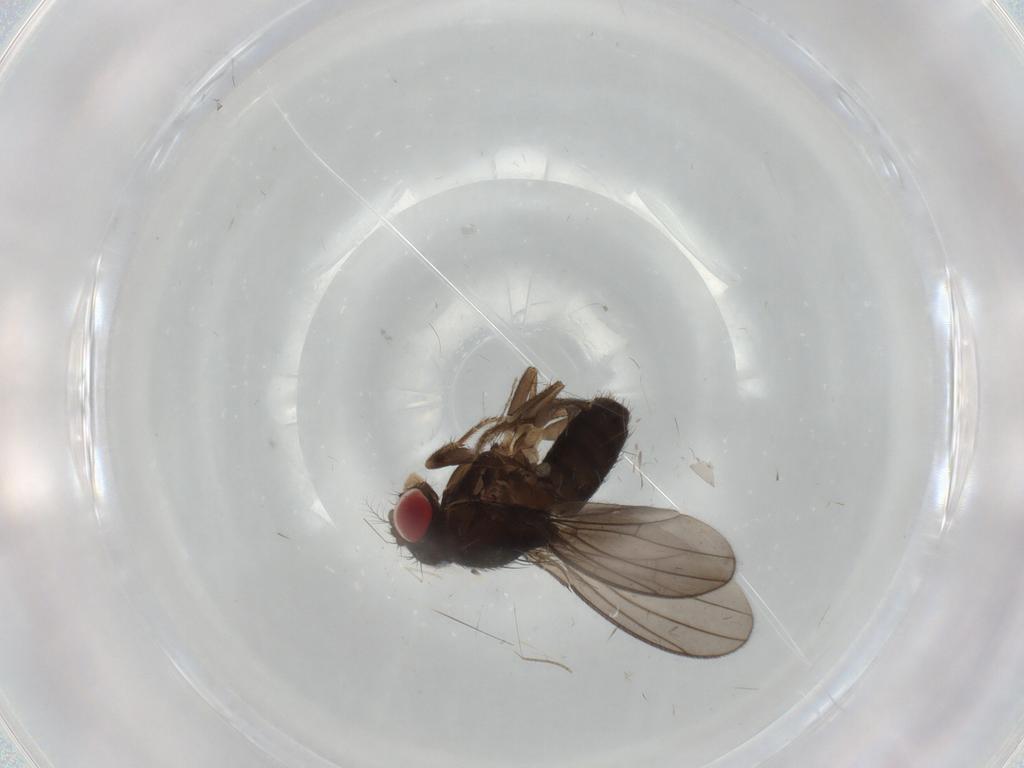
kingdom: Animalia
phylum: Arthropoda
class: Insecta
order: Diptera
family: Drosophilidae
